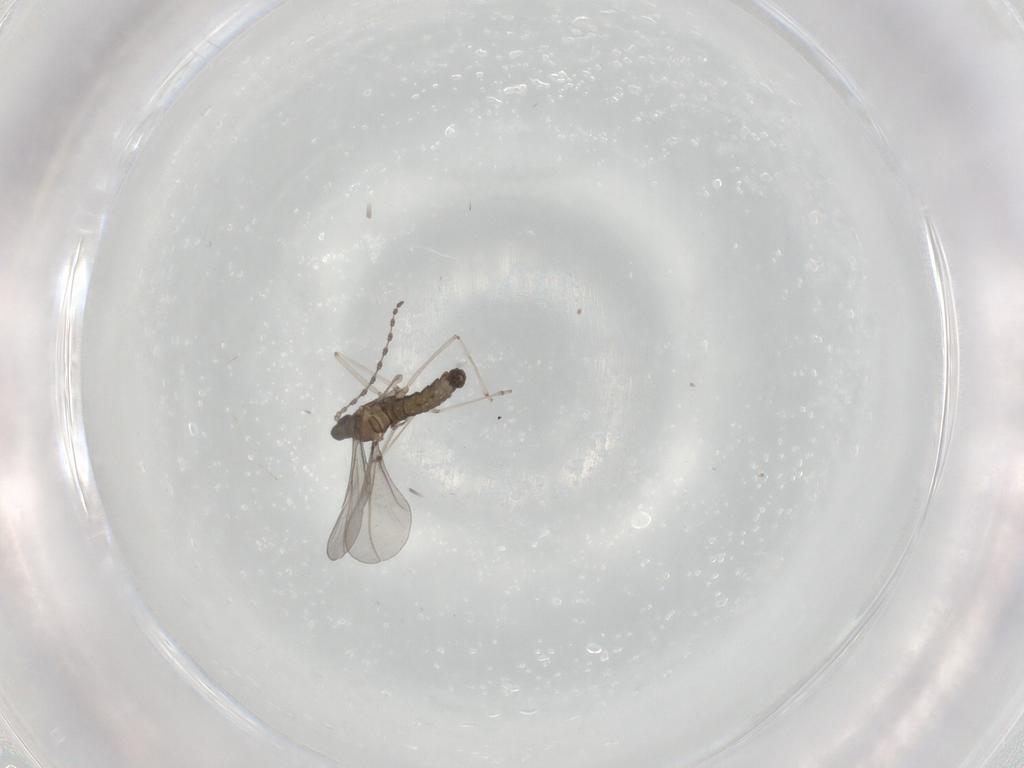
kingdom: Animalia
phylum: Arthropoda
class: Insecta
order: Diptera
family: Cecidomyiidae
